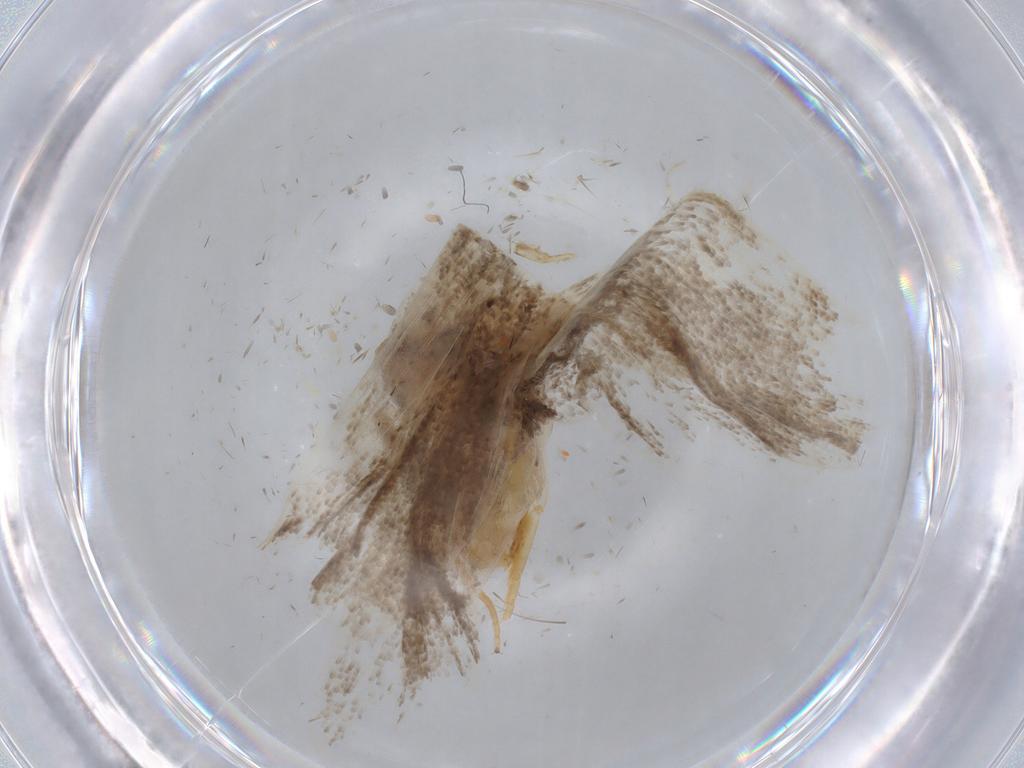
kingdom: Animalia
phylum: Arthropoda
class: Insecta
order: Lepidoptera
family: Lecithoceridae
